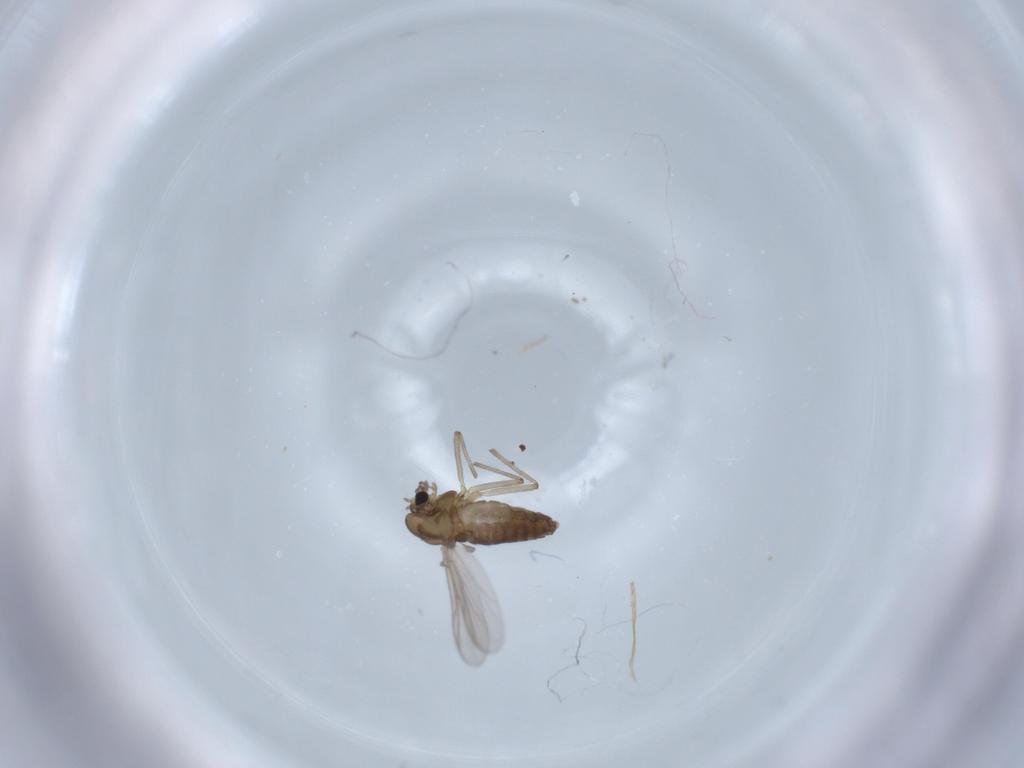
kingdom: Animalia
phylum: Arthropoda
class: Insecta
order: Diptera
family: Chironomidae
